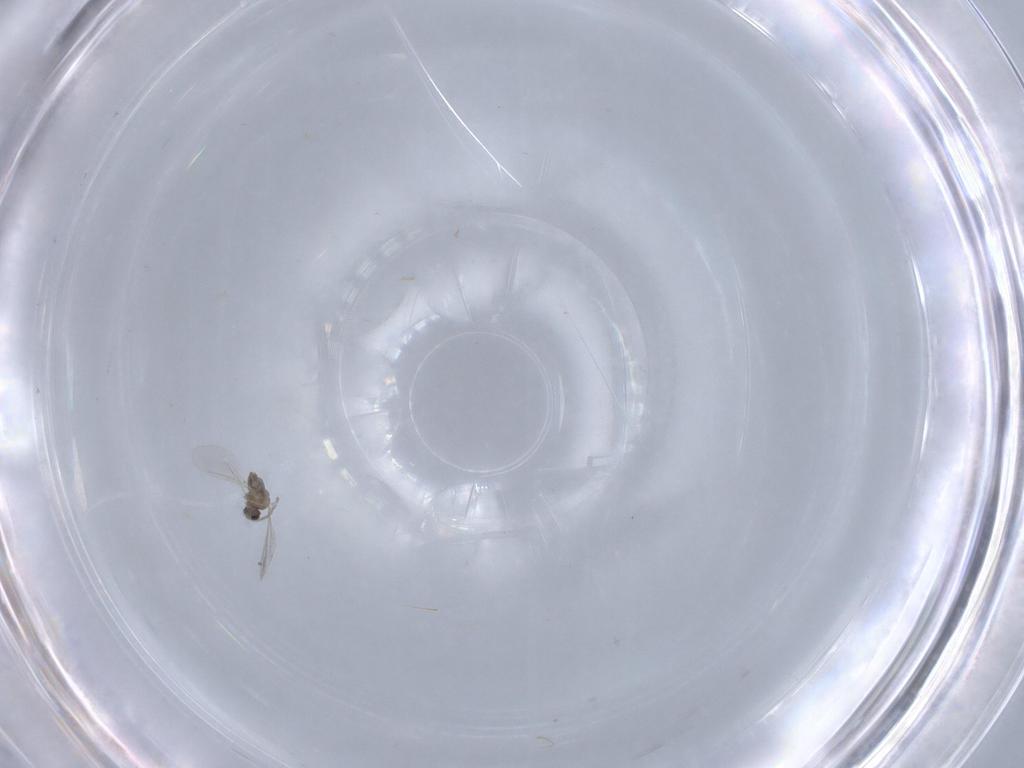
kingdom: Animalia
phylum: Arthropoda
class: Insecta
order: Diptera
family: Cecidomyiidae
